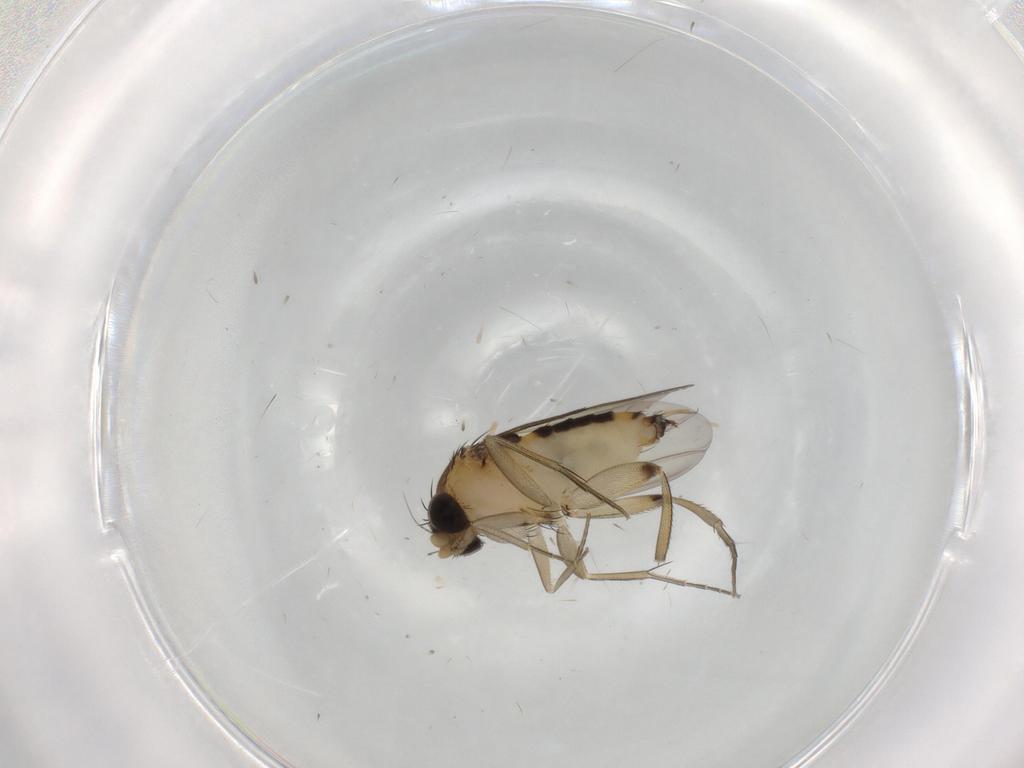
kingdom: Animalia
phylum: Arthropoda
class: Insecta
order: Diptera
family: Phoridae
